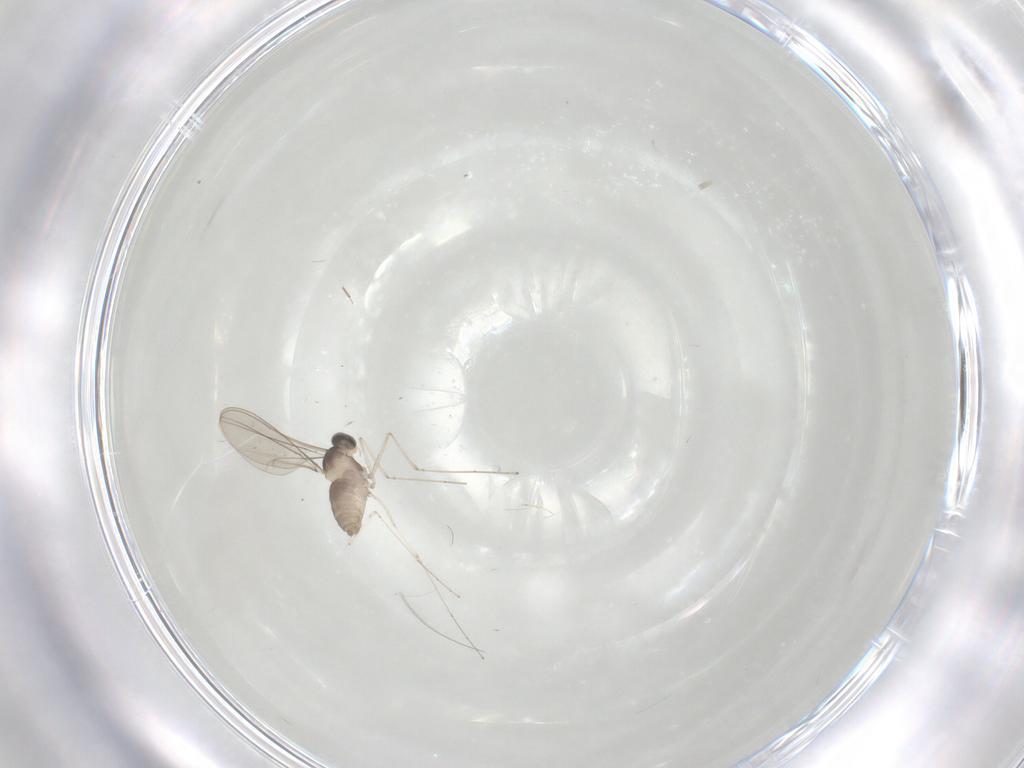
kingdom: Animalia
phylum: Arthropoda
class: Insecta
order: Diptera
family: Cecidomyiidae
